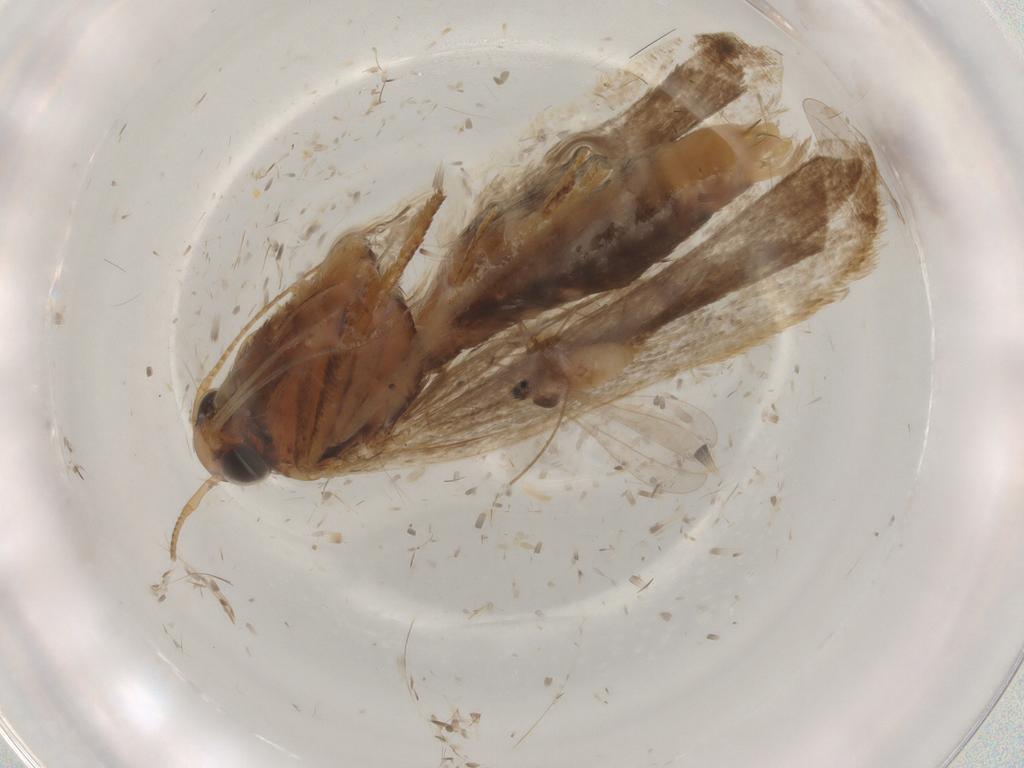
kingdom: Animalia
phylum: Arthropoda
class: Insecta
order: Lepidoptera
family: Gelechiidae
